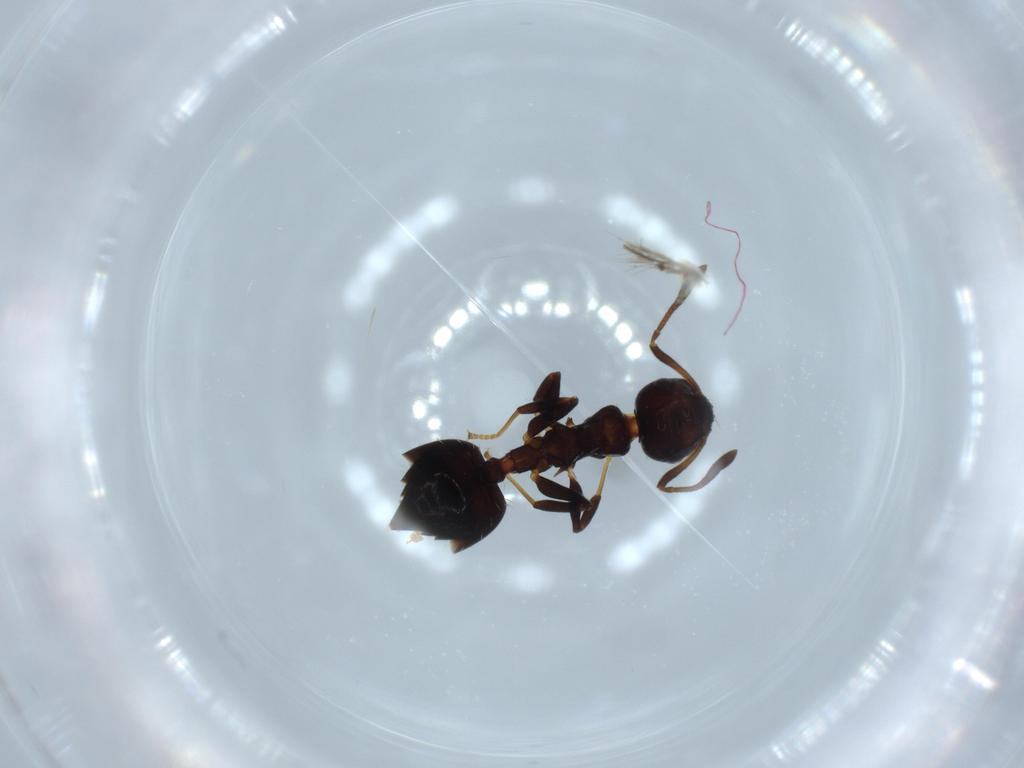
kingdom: Animalia
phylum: Arthropoda
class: Insecta
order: Hymenoptera
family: Formicidae
